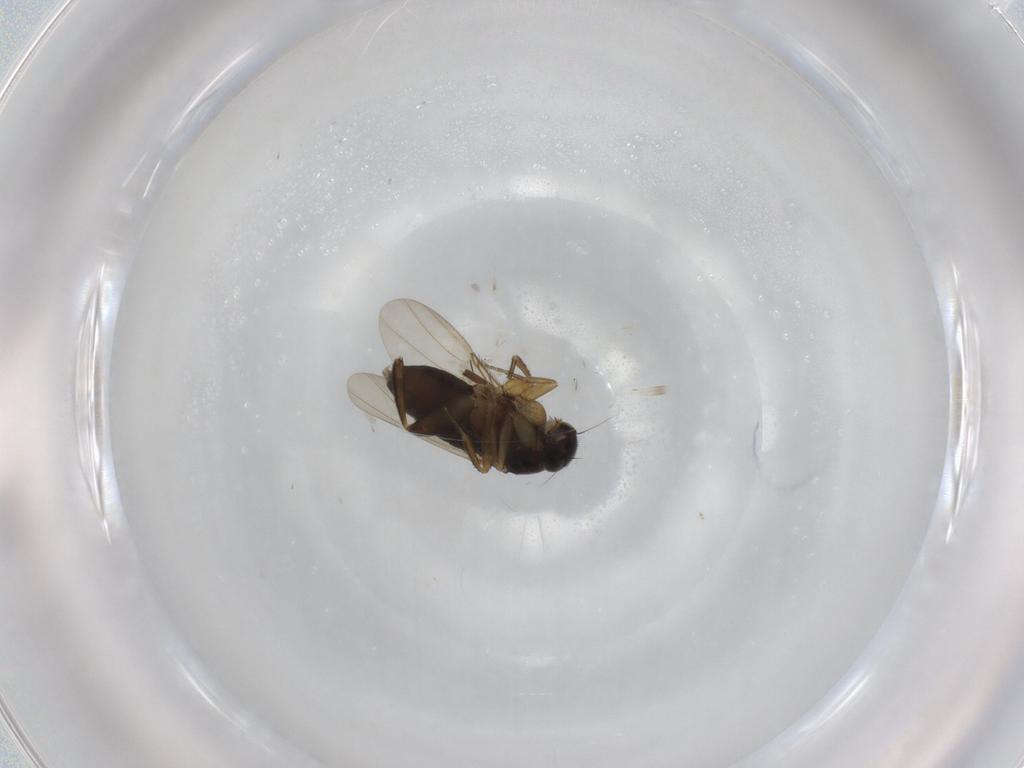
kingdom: Animalia
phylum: Arthropoda
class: Insecta
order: Diptera
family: Phoridae
